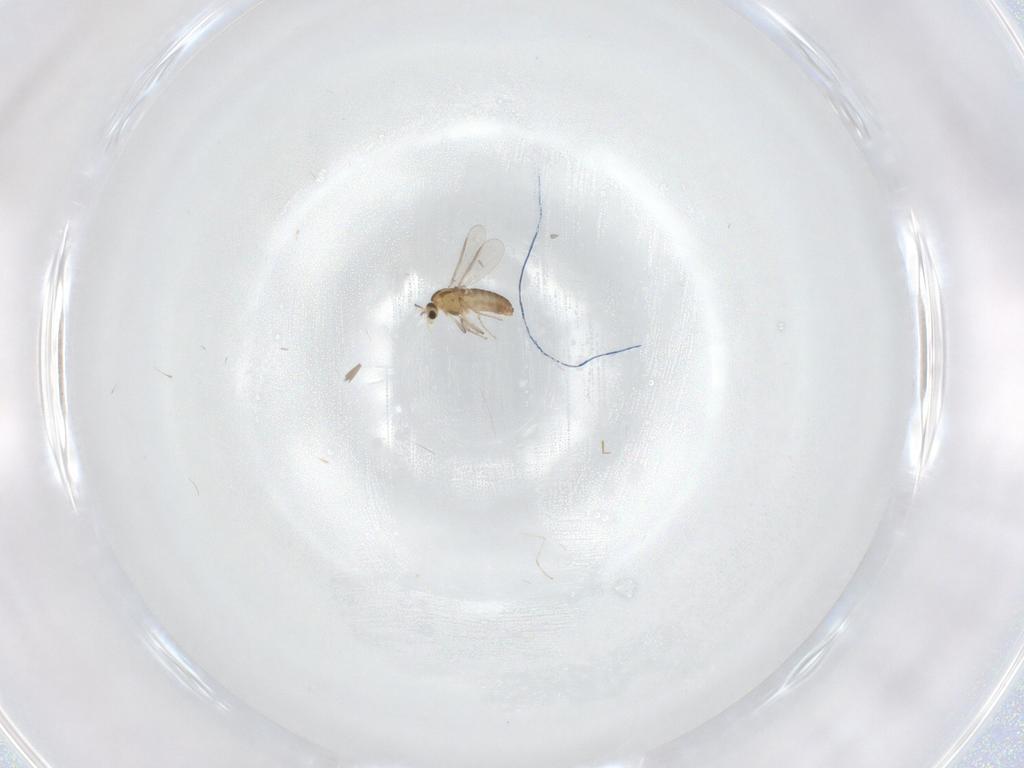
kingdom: Animalia
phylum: Arthropoda
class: Insecta
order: Diptera
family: Chironomidae
